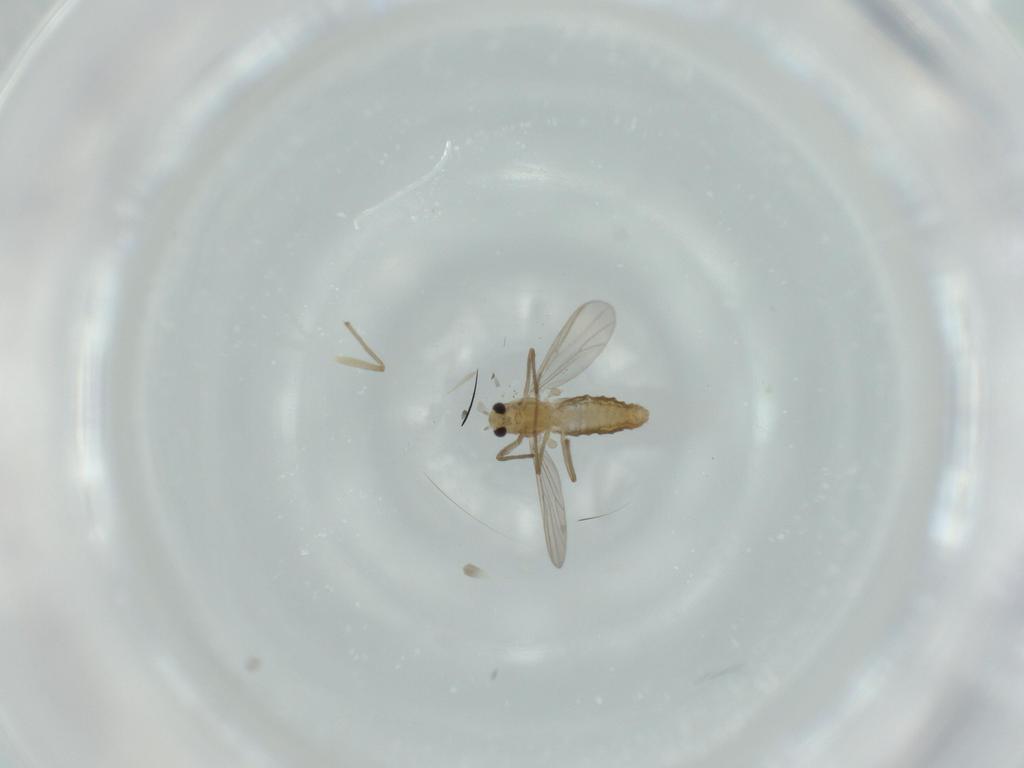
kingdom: Animalia
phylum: Arthropoda
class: Insecta
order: Diptera
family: Chironomidae
